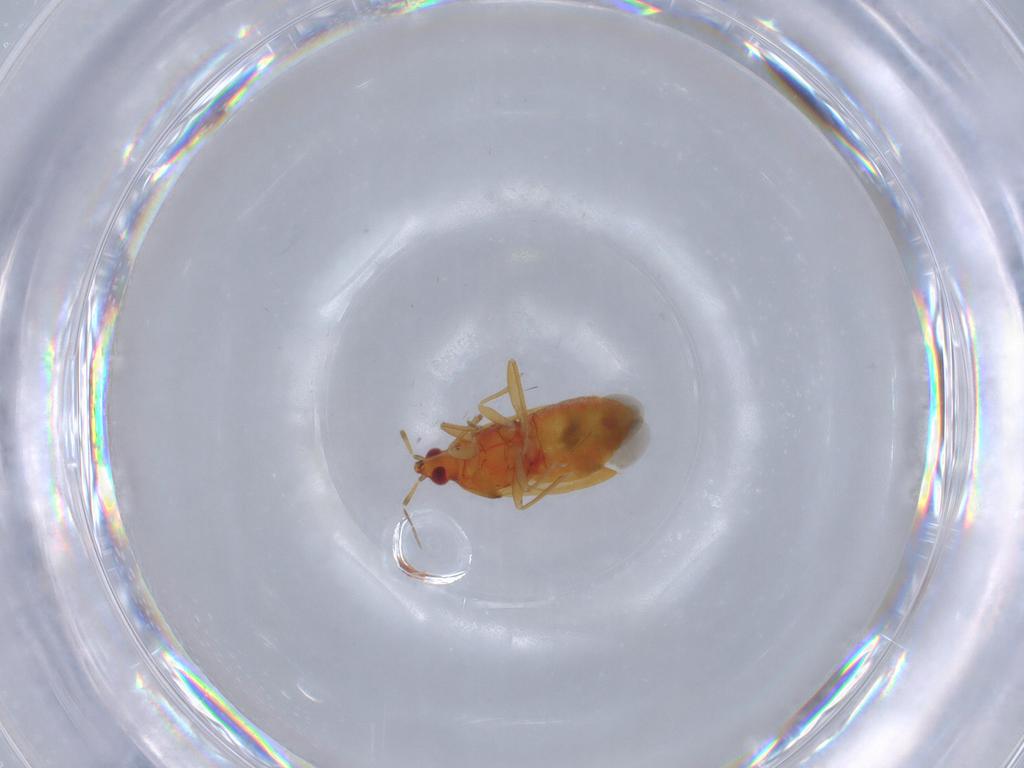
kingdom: Animalia
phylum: Arthropoda
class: Insecta
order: Hemiptera
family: Anthocoridae
